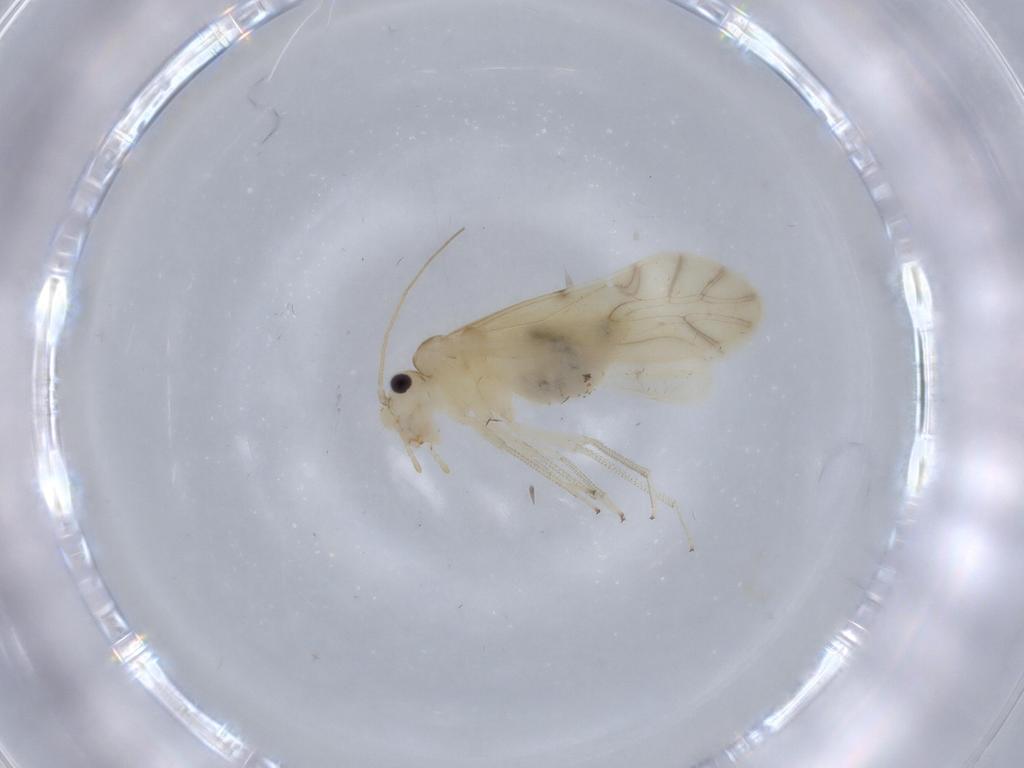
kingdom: Animalia
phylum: Arthropoda
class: Insecta
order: Psocodea
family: Caeciliusidae
